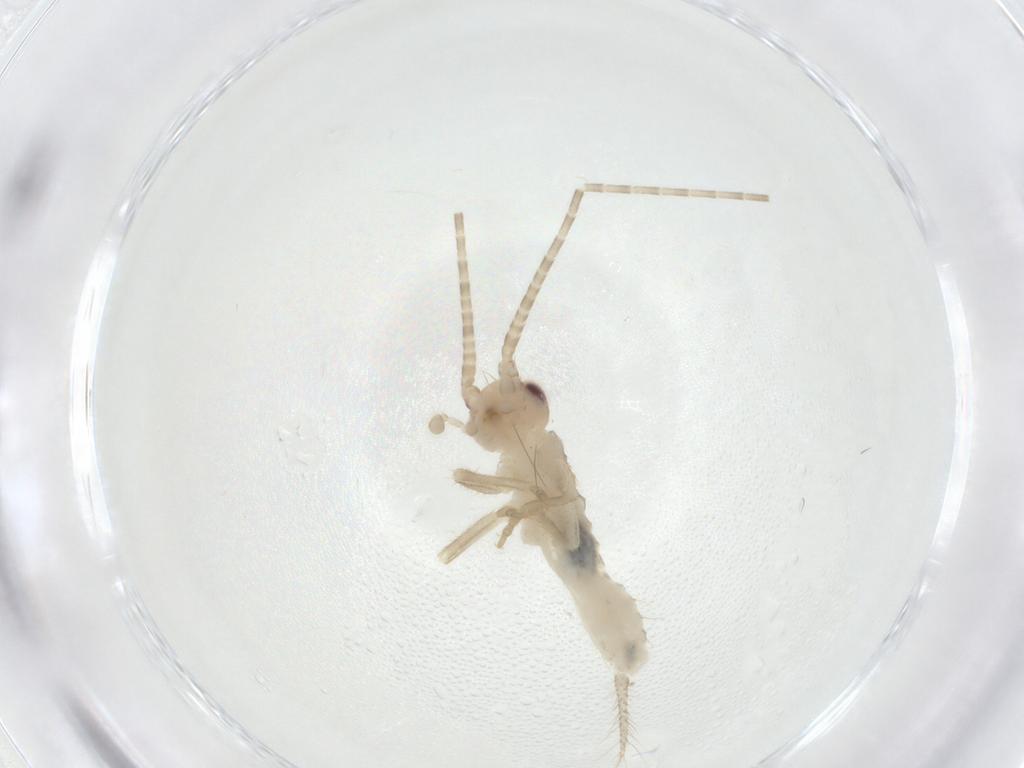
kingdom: Animalia
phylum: Arthropoda
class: Insecta
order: Orthoptera
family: Gryllidae
